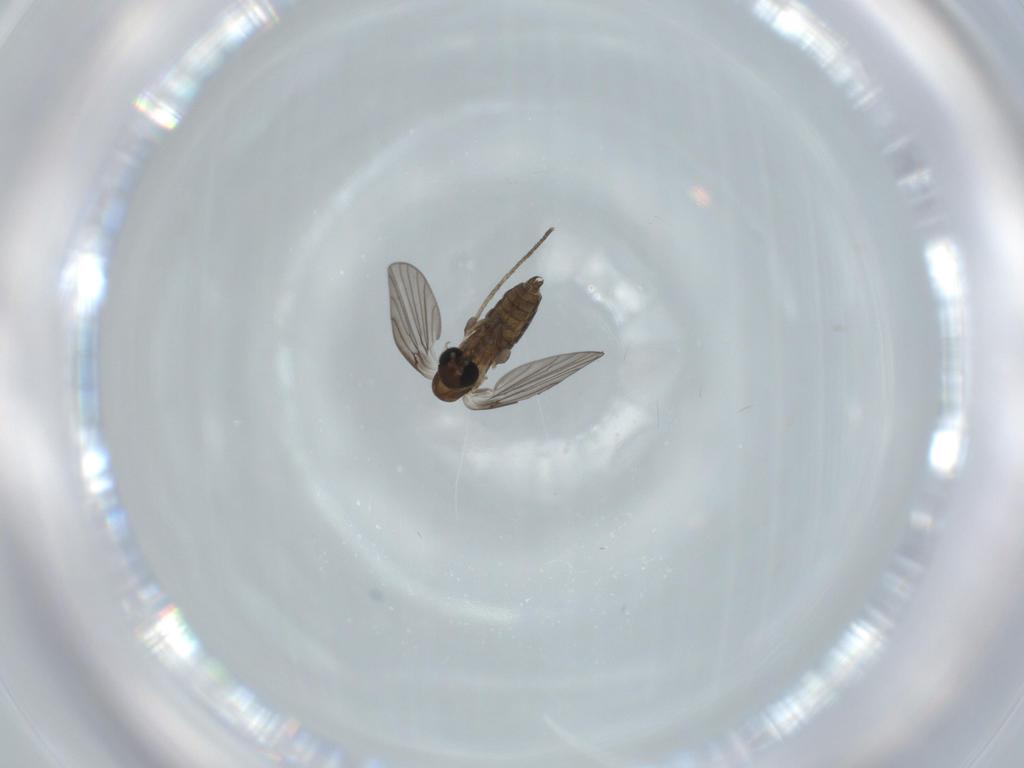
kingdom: Animalia
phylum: Arthropoda
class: Insecta
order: Diptera
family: Psychodidae
